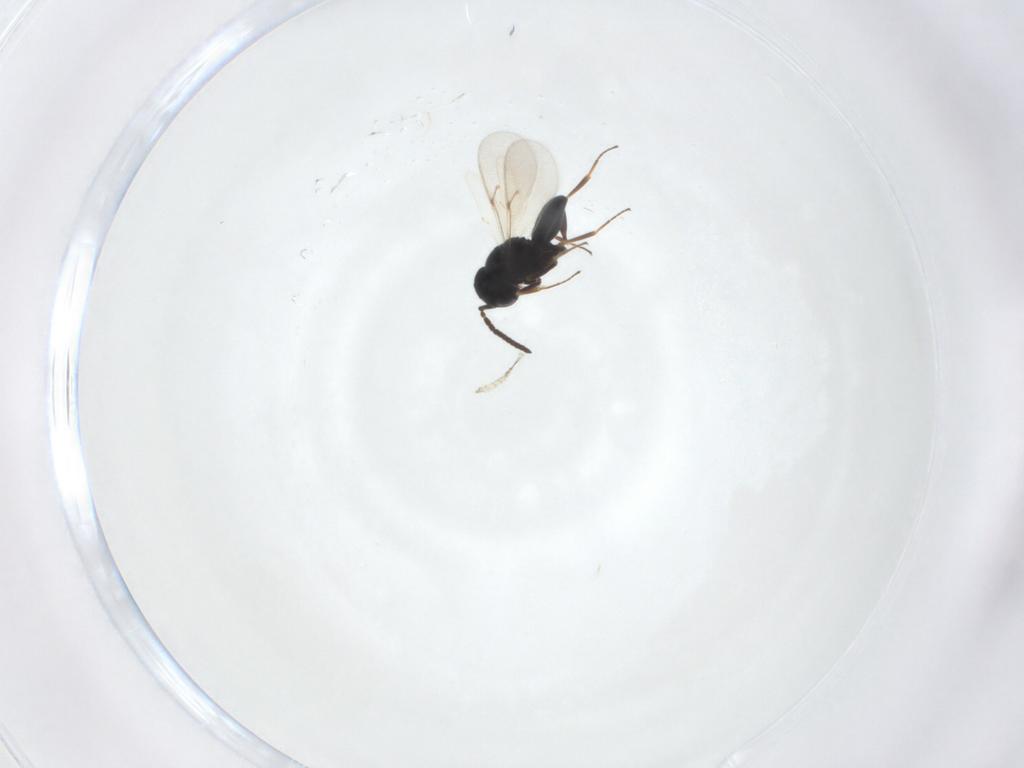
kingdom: Animalia
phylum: Arthropoda
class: Insecta
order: Hymenoptera
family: Scelionidae
